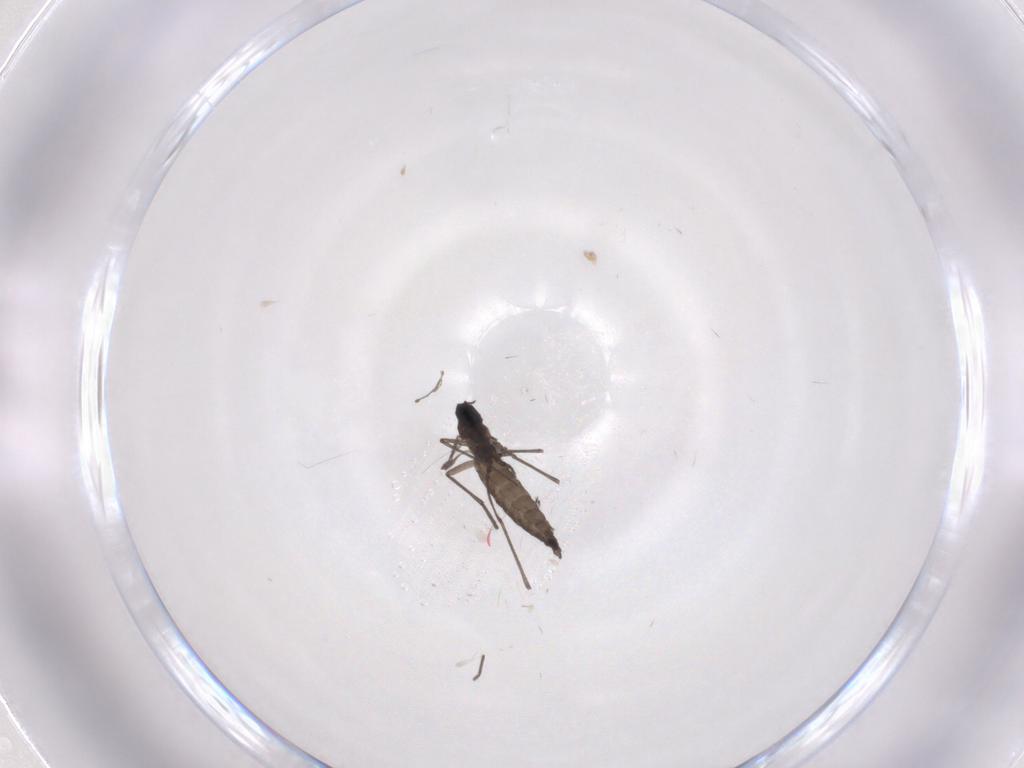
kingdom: Animalia
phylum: Arthropoda
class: Insecta
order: Diptera
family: Sciaridae
